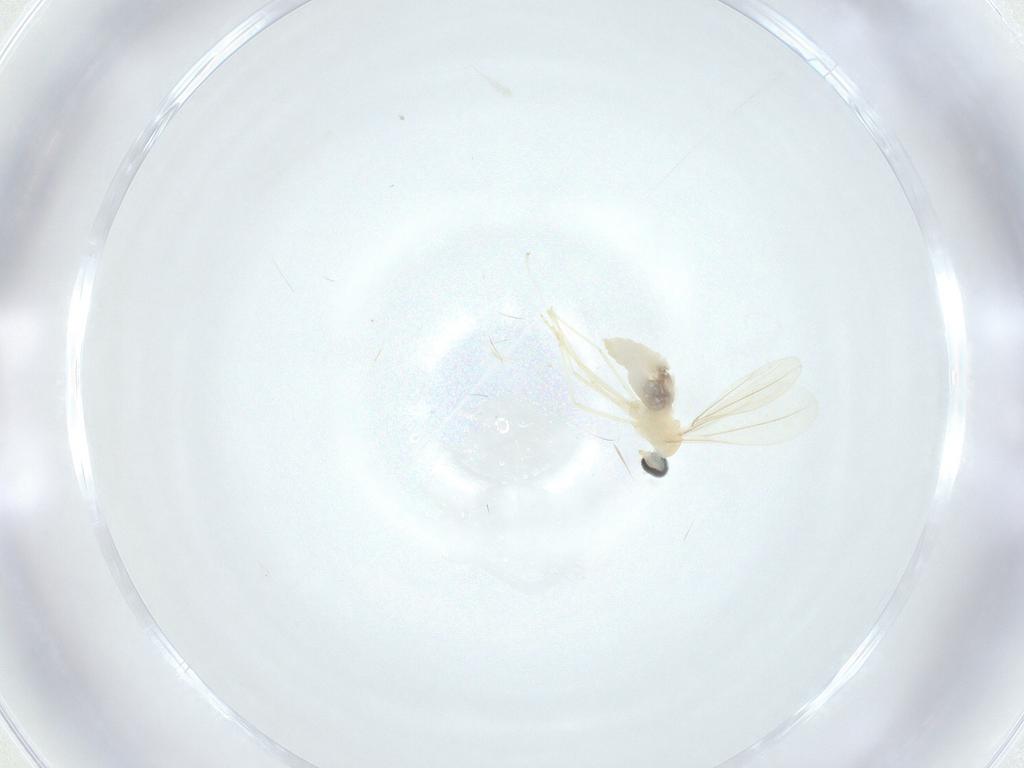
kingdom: Animalia
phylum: Arthropoda
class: Insecta
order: Diptera
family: Cecidomyiidae
